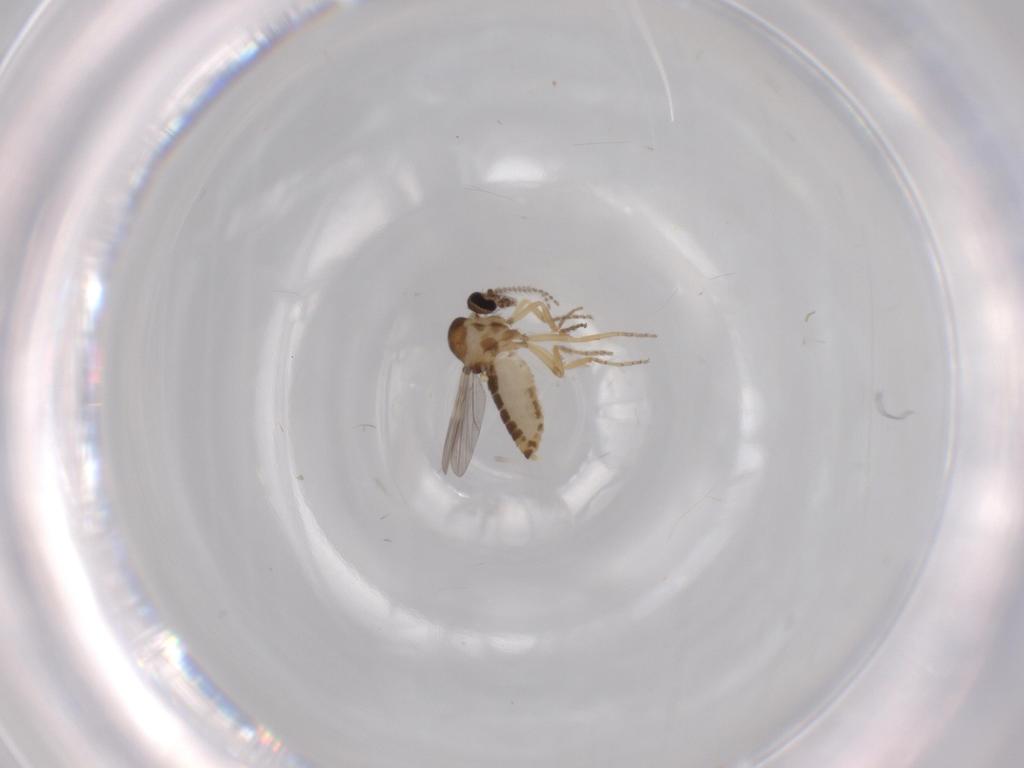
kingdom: Animalia
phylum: Arthropoda
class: Insecta
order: Diptera
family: Ceratopogonidae
